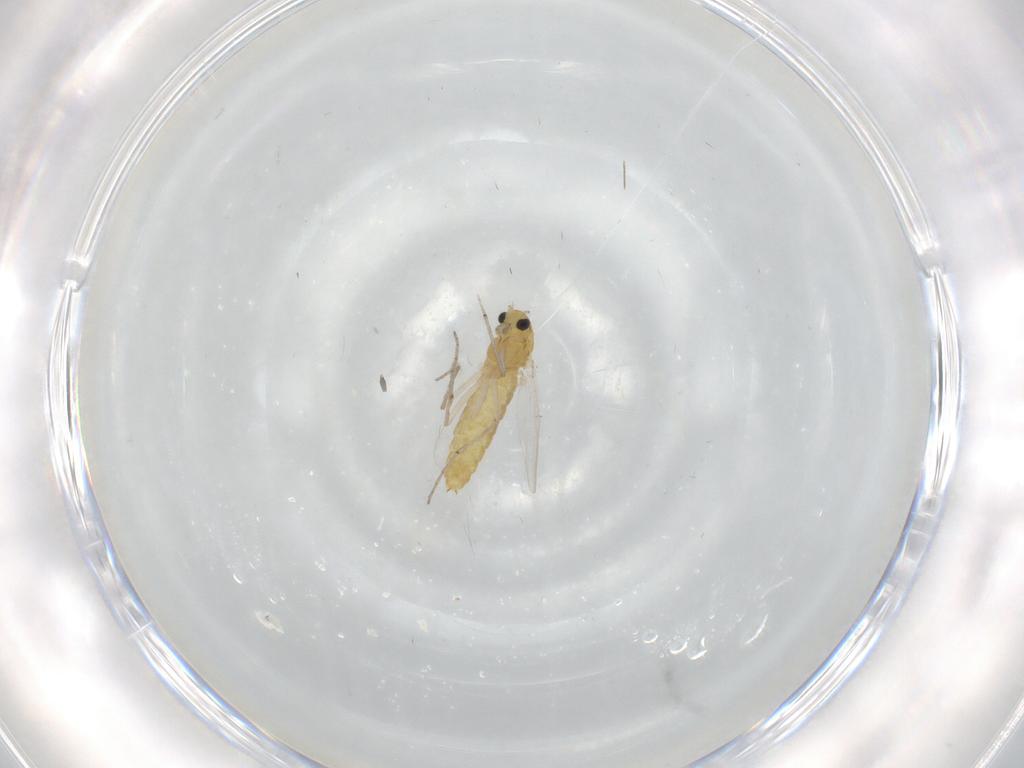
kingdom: Animalia
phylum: Arthropoda
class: Insecta
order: Diptera
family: Chironomidae
